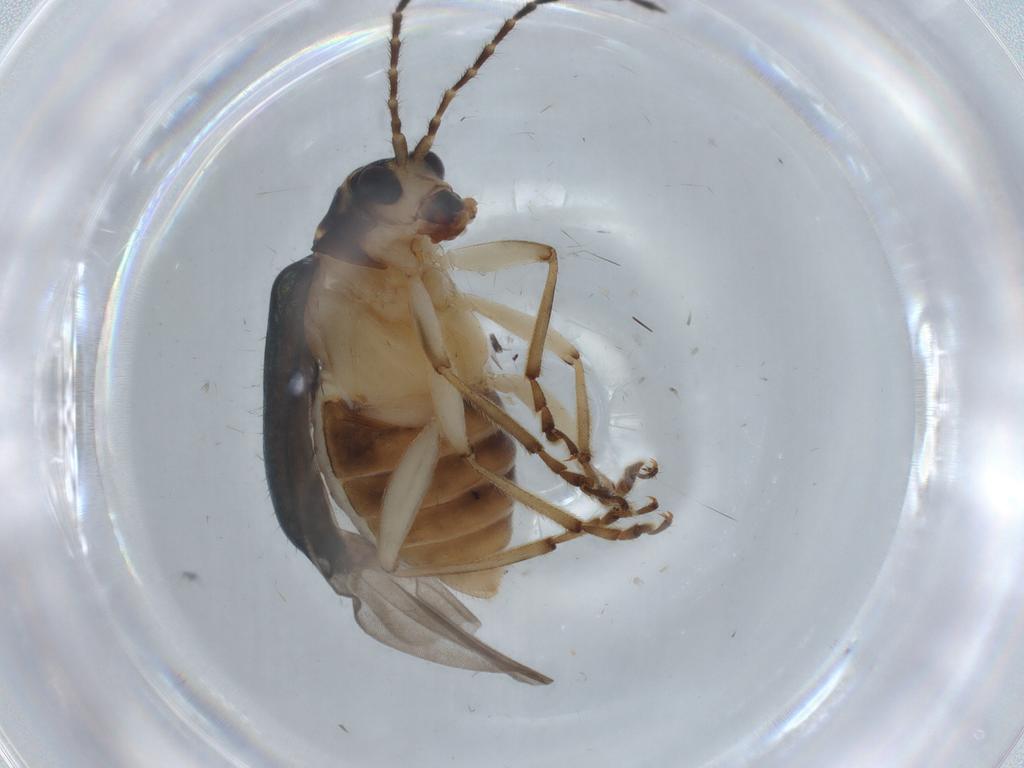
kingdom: Animalia
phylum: Arthropoda
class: Insecta
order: Coleoptera
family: Chrysomelidae
